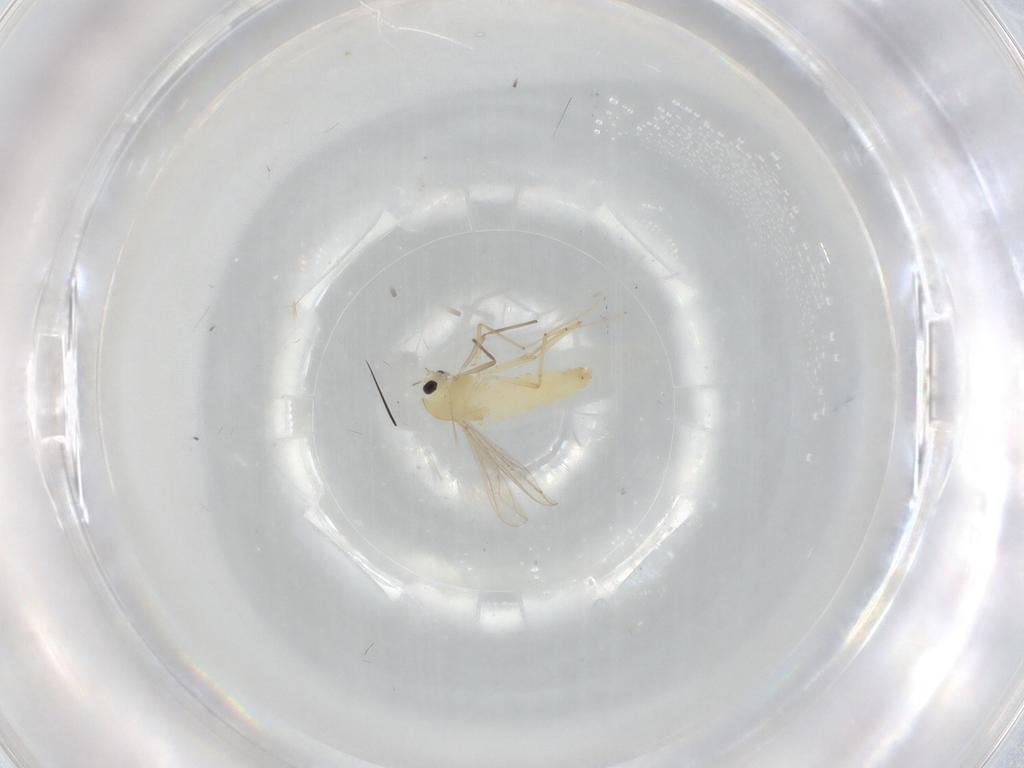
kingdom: Animalia
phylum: Arthropoda
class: Insecta
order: Diptera
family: Chironomidae
